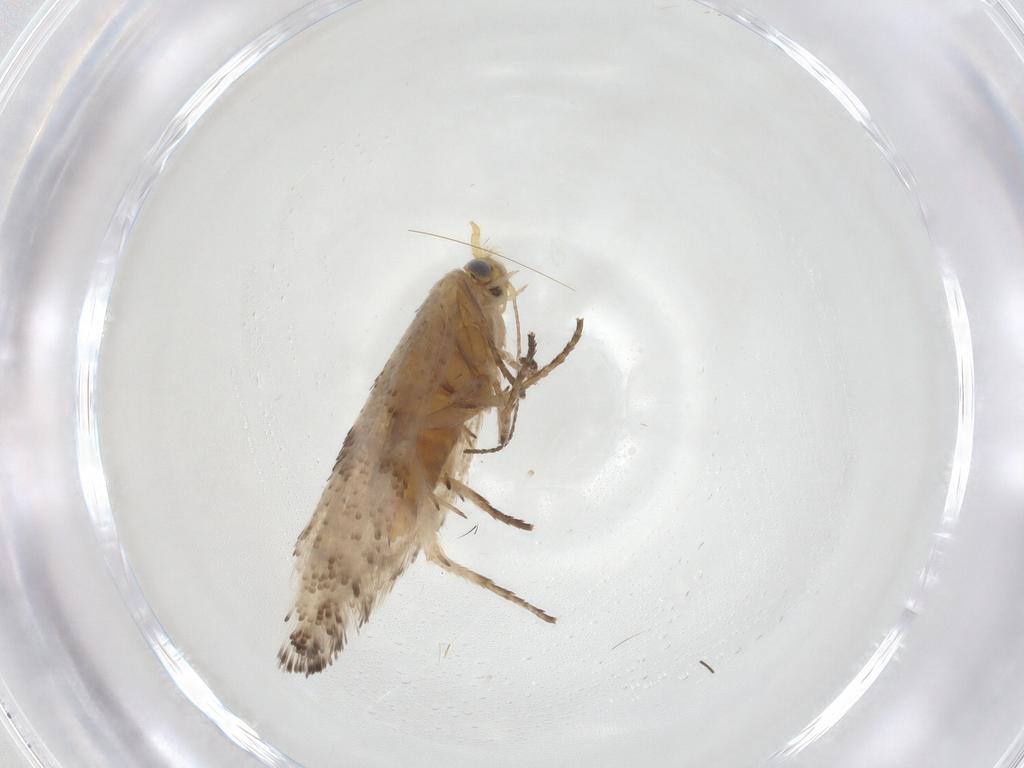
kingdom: Animalia
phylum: Arthropoda
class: Insecta
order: Lepidoptera
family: Argyresthiidae
